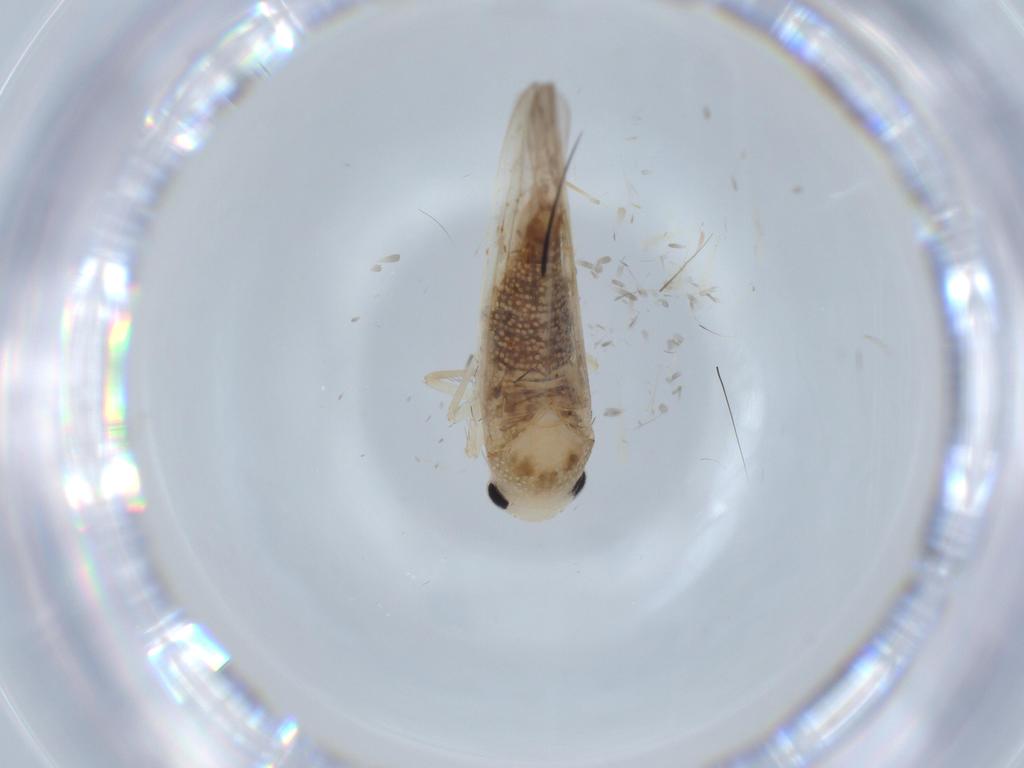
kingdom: Animalia
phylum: Arthropoda
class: Insecta
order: Hemiptera
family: Cicadellidae
